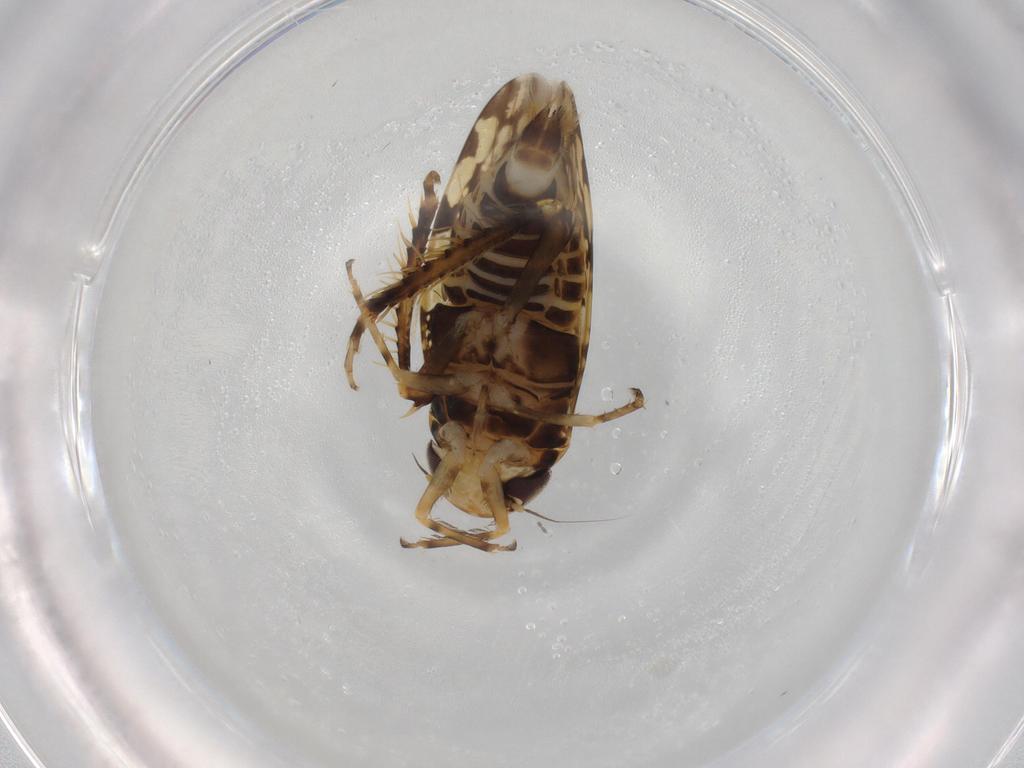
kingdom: Animalia
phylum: Arthropoda
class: Insecta
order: Hemiptera
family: Cicadellidae
